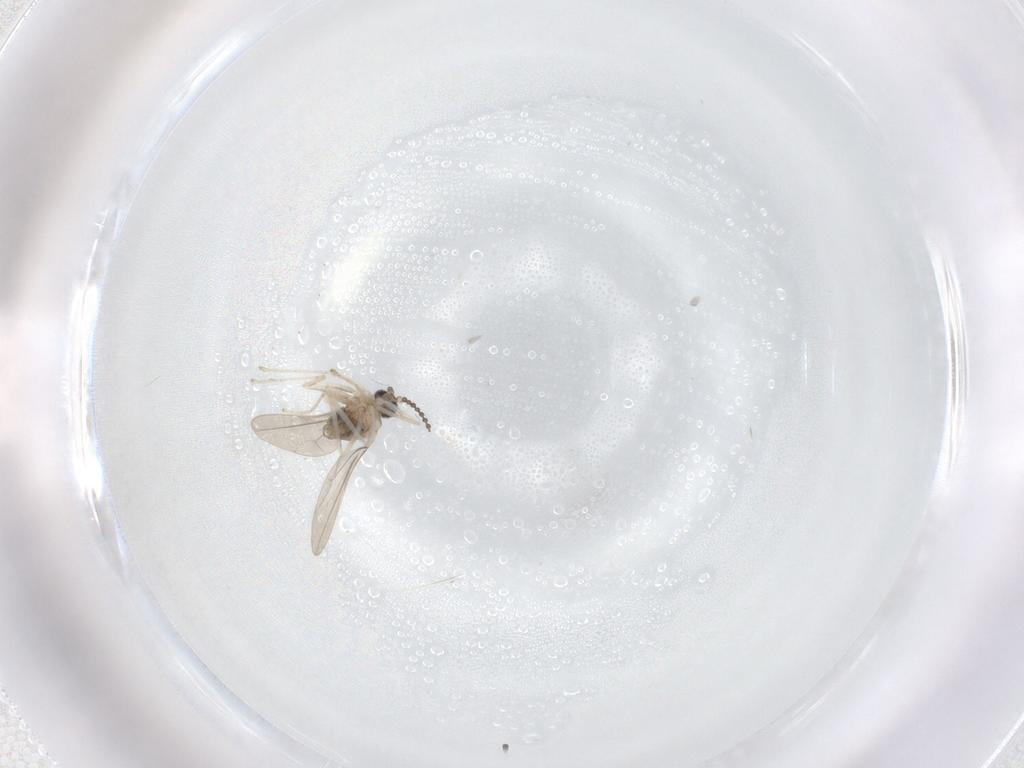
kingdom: Animalia
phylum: Arthropoda
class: Insecta
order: Diptera
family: Cecidomyiidae
